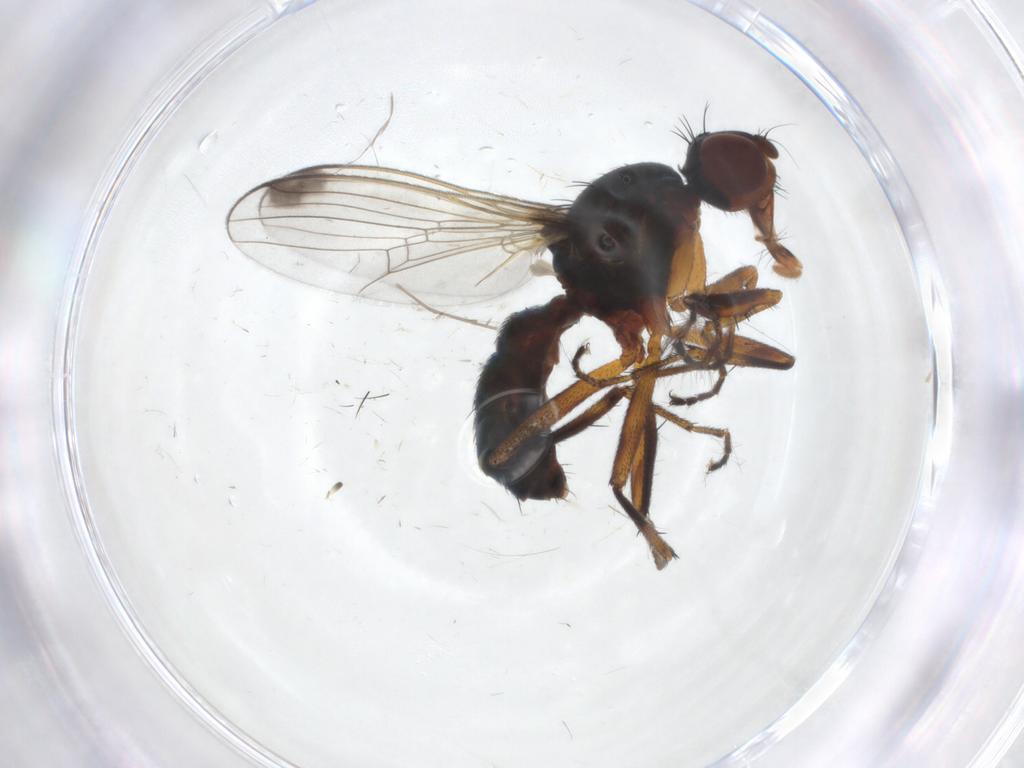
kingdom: Animalia
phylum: Arthropoda
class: Insecta
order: Diptera
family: Sepsidae
